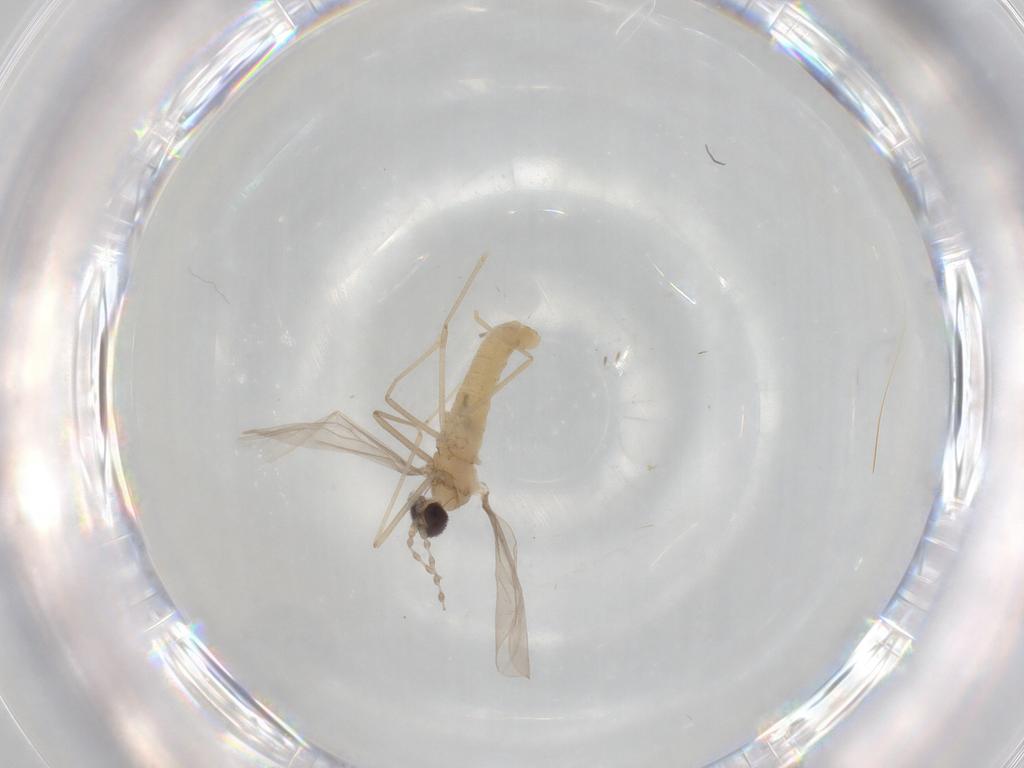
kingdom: Animalia
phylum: Arthropoda
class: Insecta
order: Diptera
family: Cecidomyiidae
